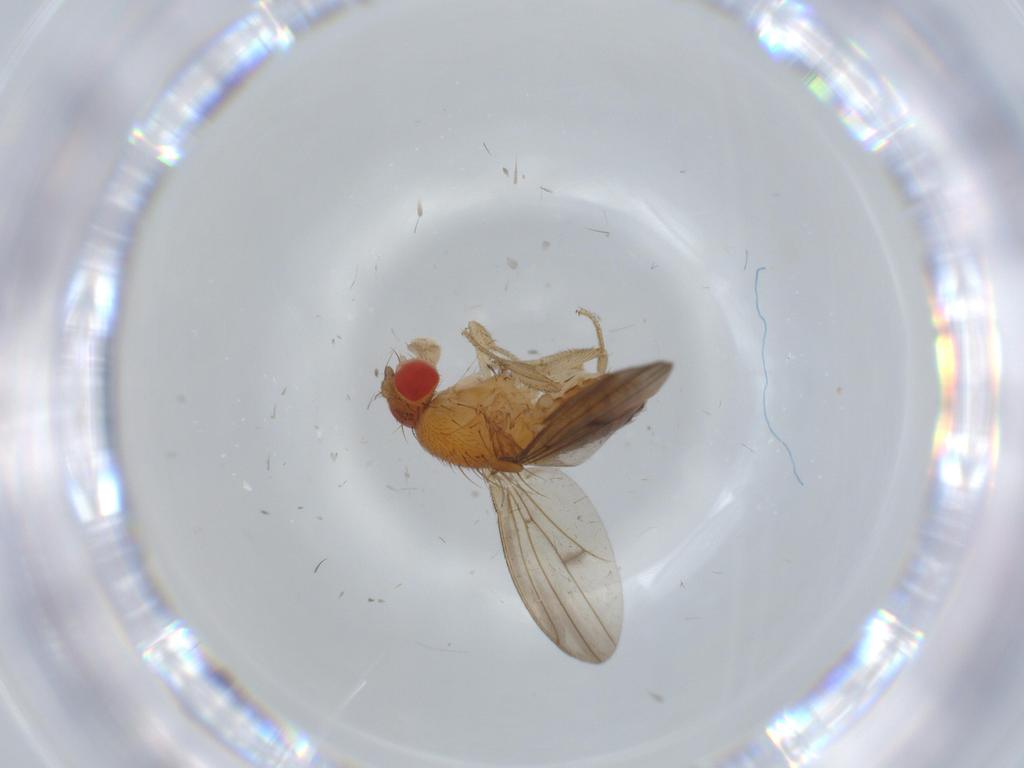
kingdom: Animalia
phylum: Arthropoda
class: Insecta
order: Diptera
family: Drosophilidae
